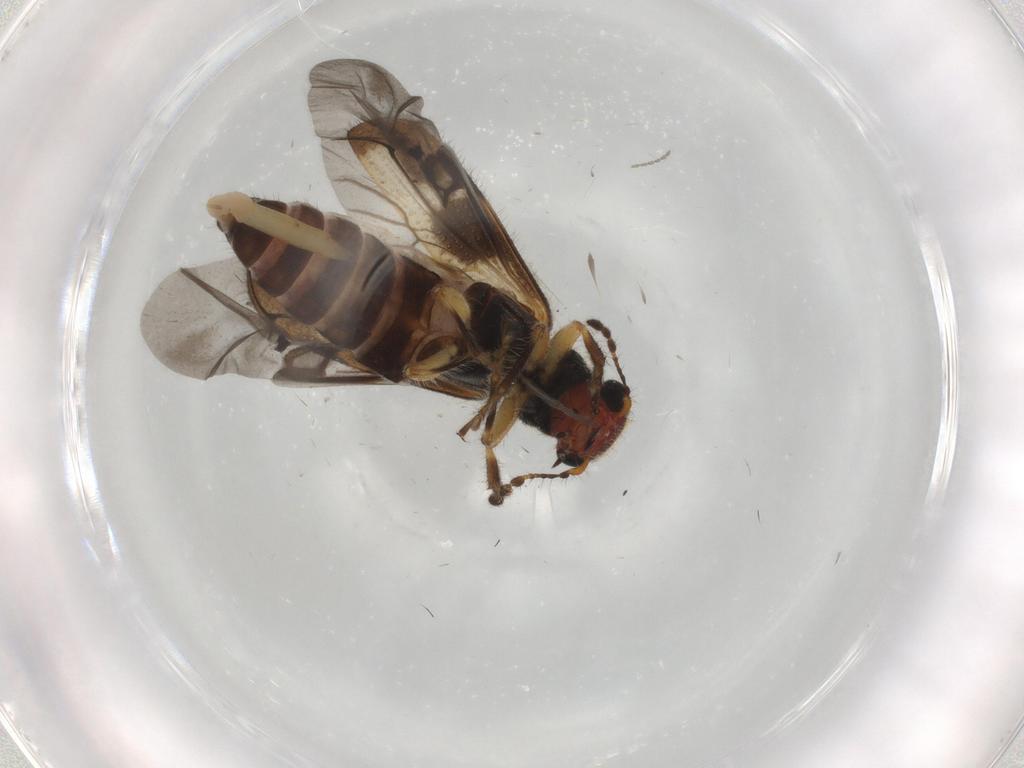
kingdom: Animalia
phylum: Arthropoda
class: Insecta
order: Coleoptera
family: Cleridae
